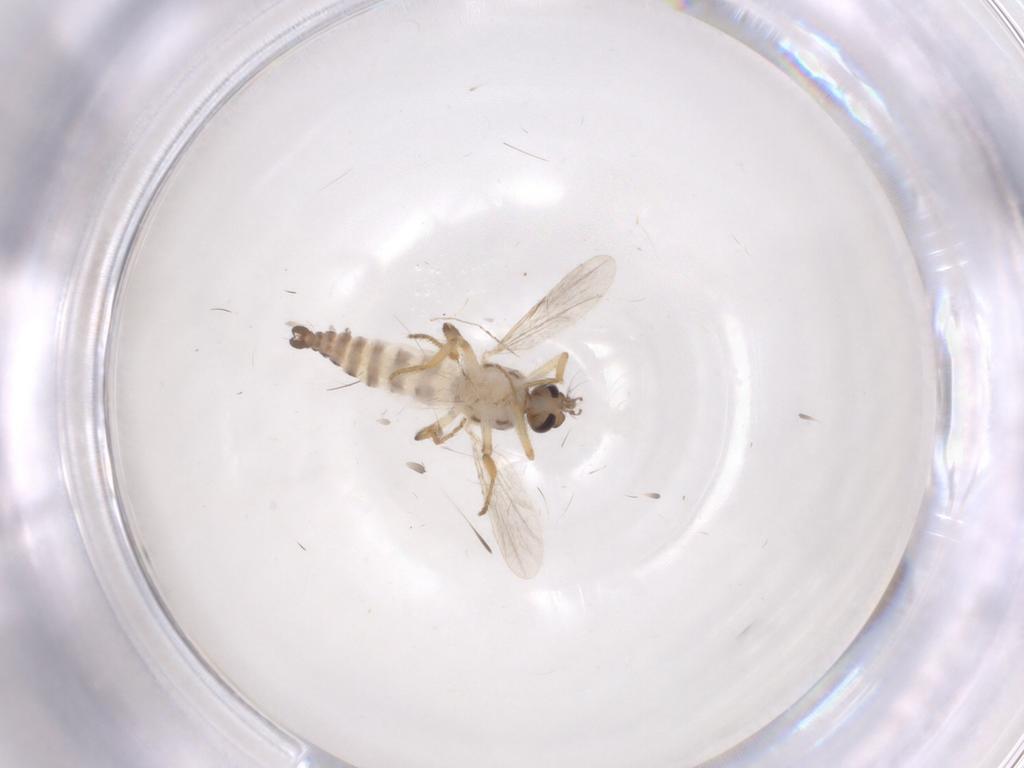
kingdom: Animalia
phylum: Arthropoda
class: Insecta
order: Diptera
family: Ceratopogonidae
